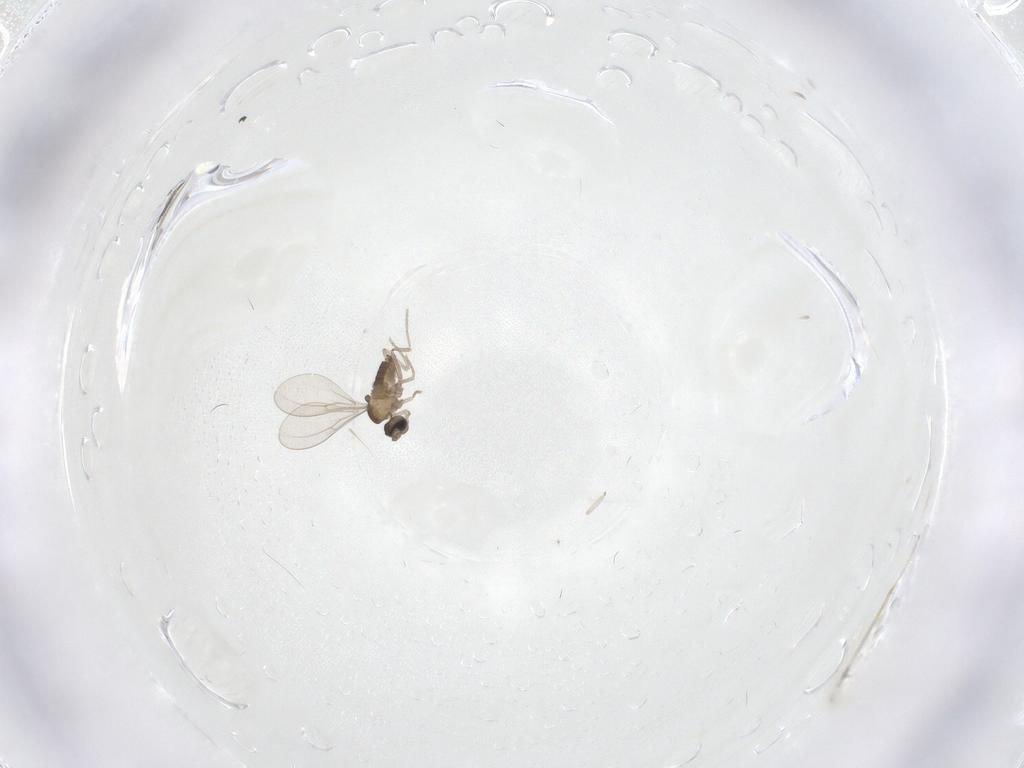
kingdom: Animalia
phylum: Arthropoda
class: Insecta
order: Diptera
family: Cecidomyiidae
